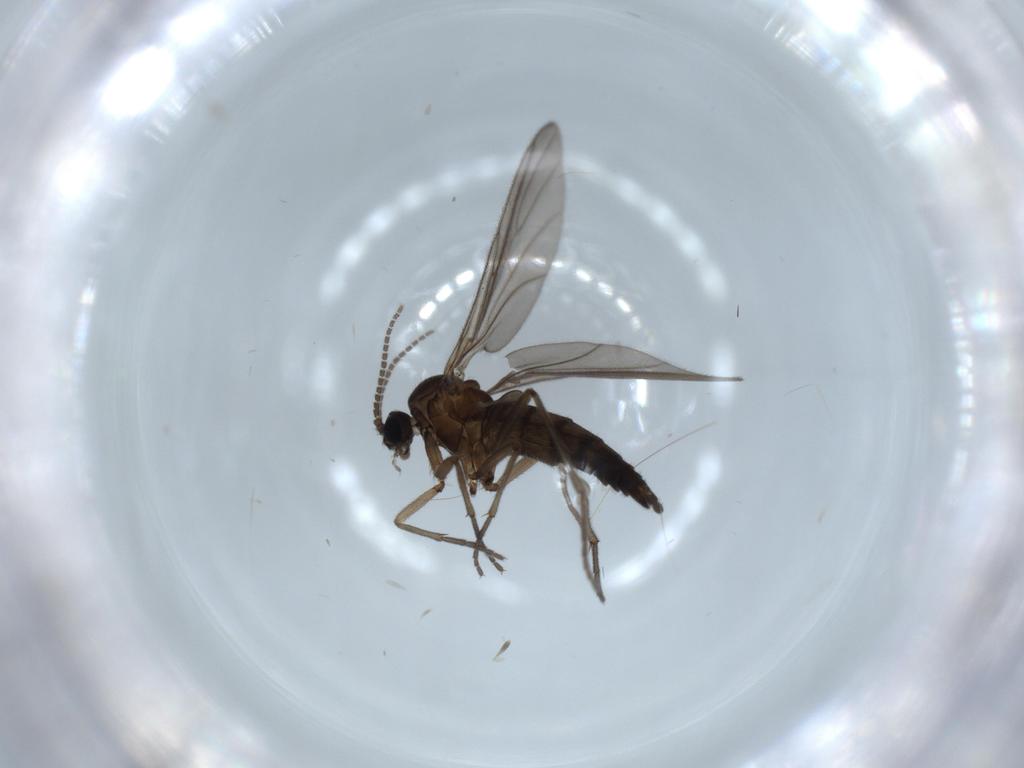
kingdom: Animalia
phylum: Arthropoda
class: Insecta
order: Diptera
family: Sciaridae
